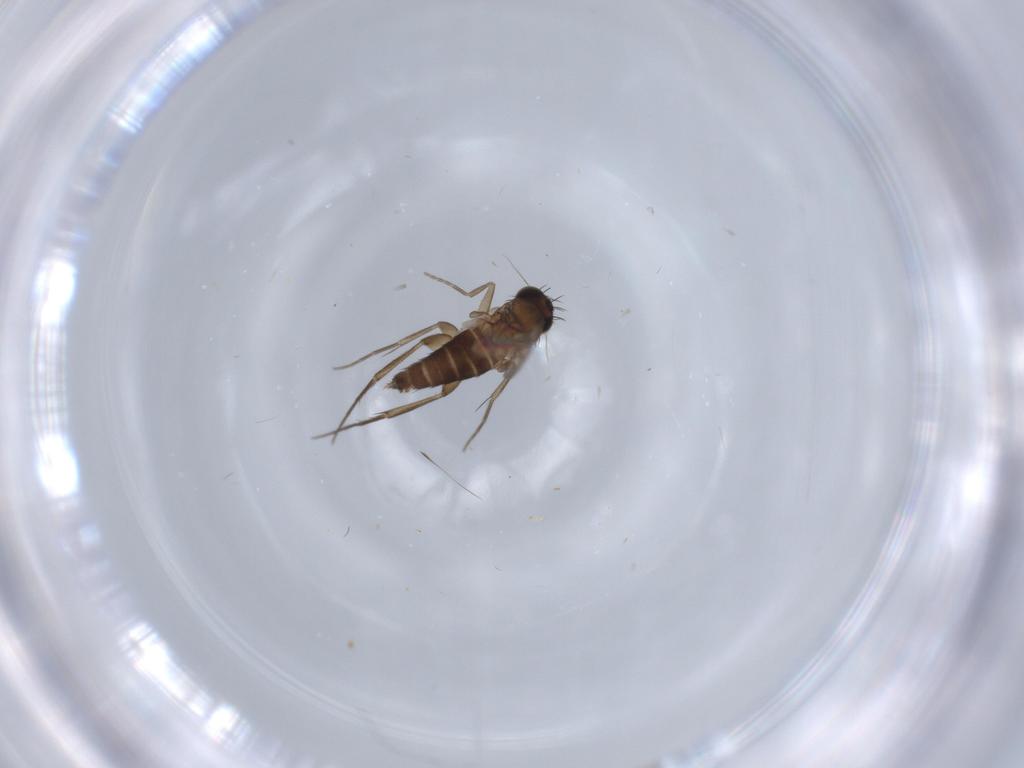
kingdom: Animalia
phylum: Arthropoda
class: Insecta
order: Diptera
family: Phoridae
